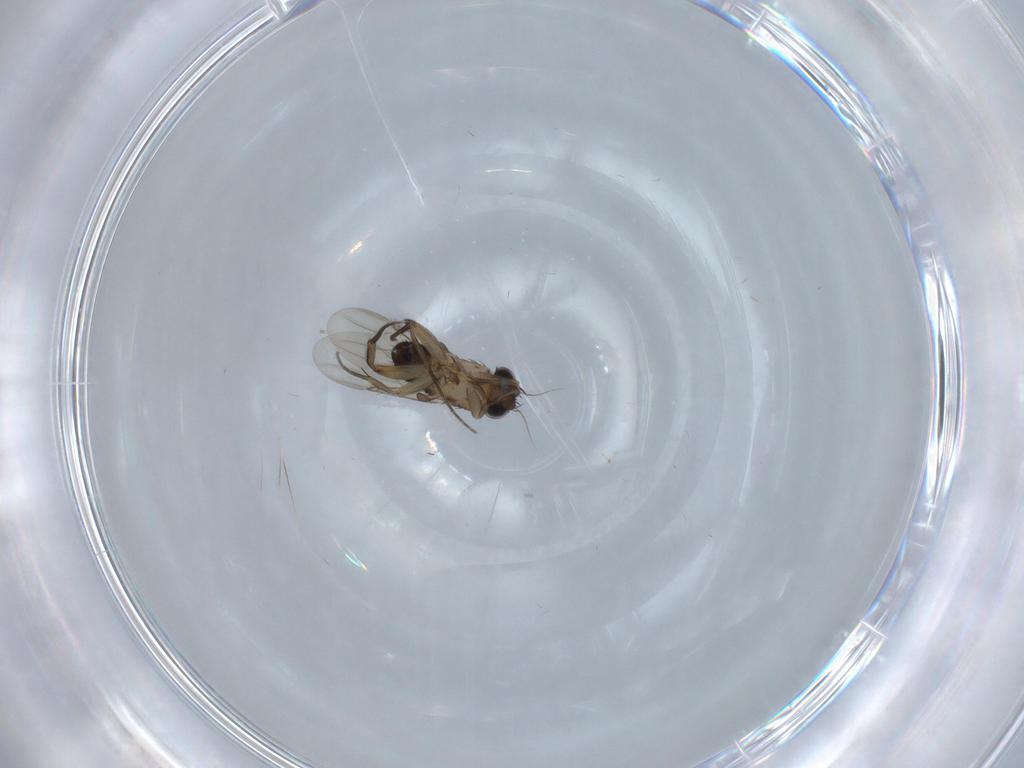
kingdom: Animalia
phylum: Arthropoda
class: Insecta
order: Diptera
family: Phoridae
